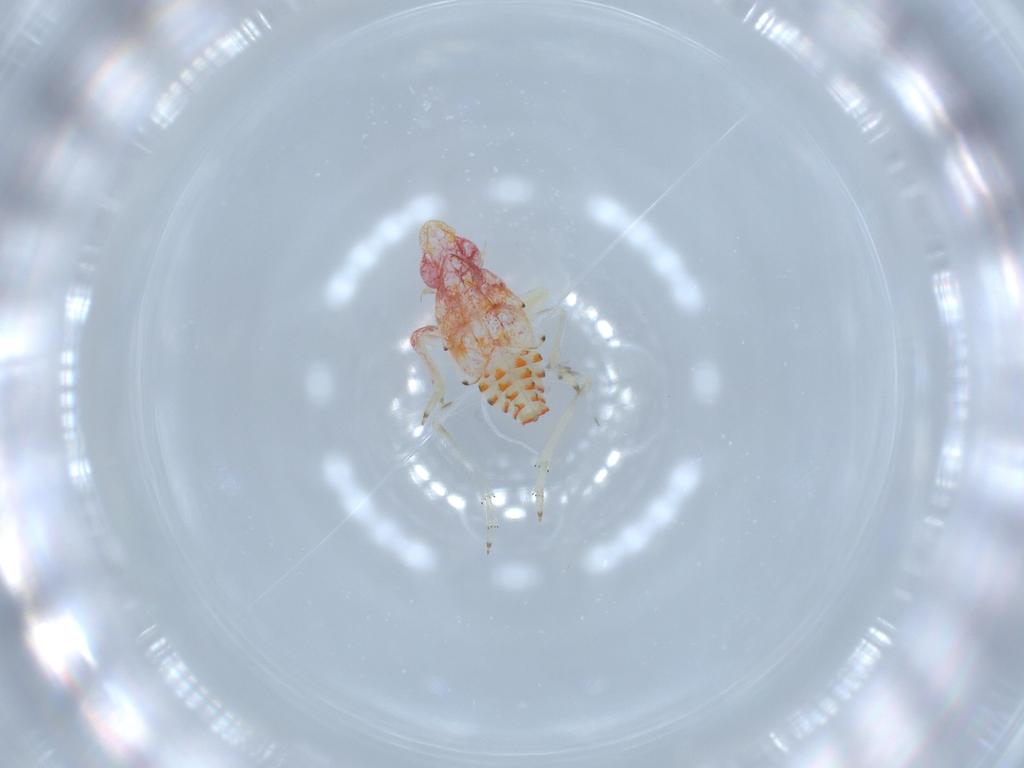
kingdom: Animalia
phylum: Arthropoda
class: Insecta
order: Hemiptera
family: Tropiduchidae
